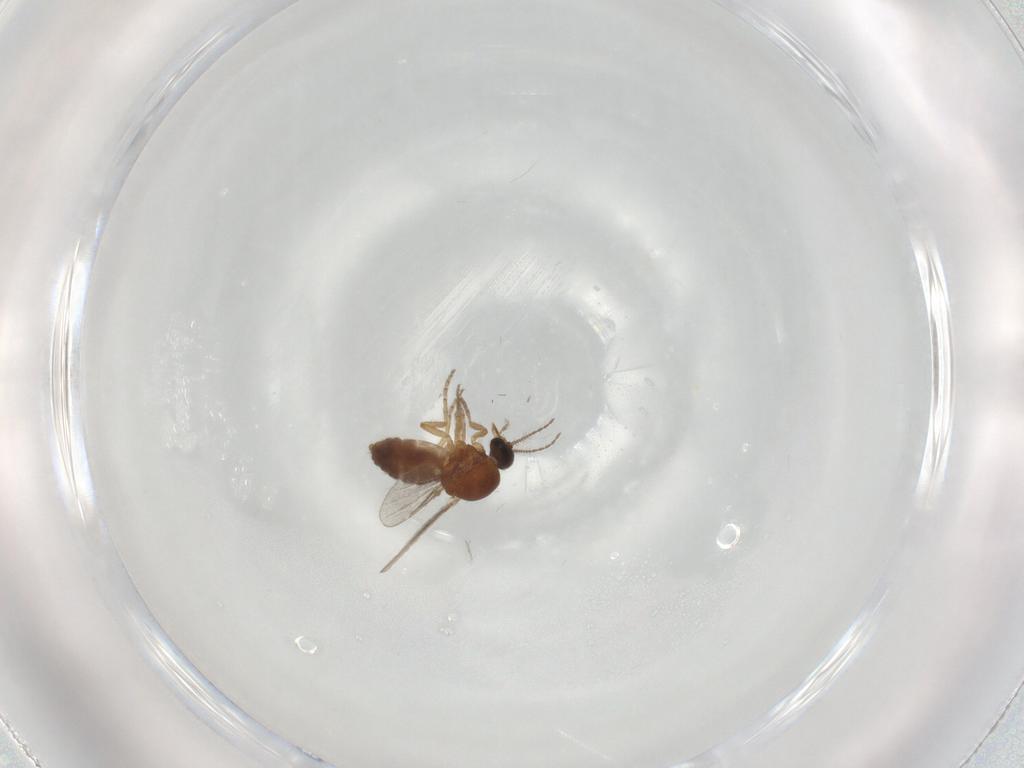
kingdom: Animalia
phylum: Arthropoda
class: Insecta
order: Diptera
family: Ceratopogonidae
